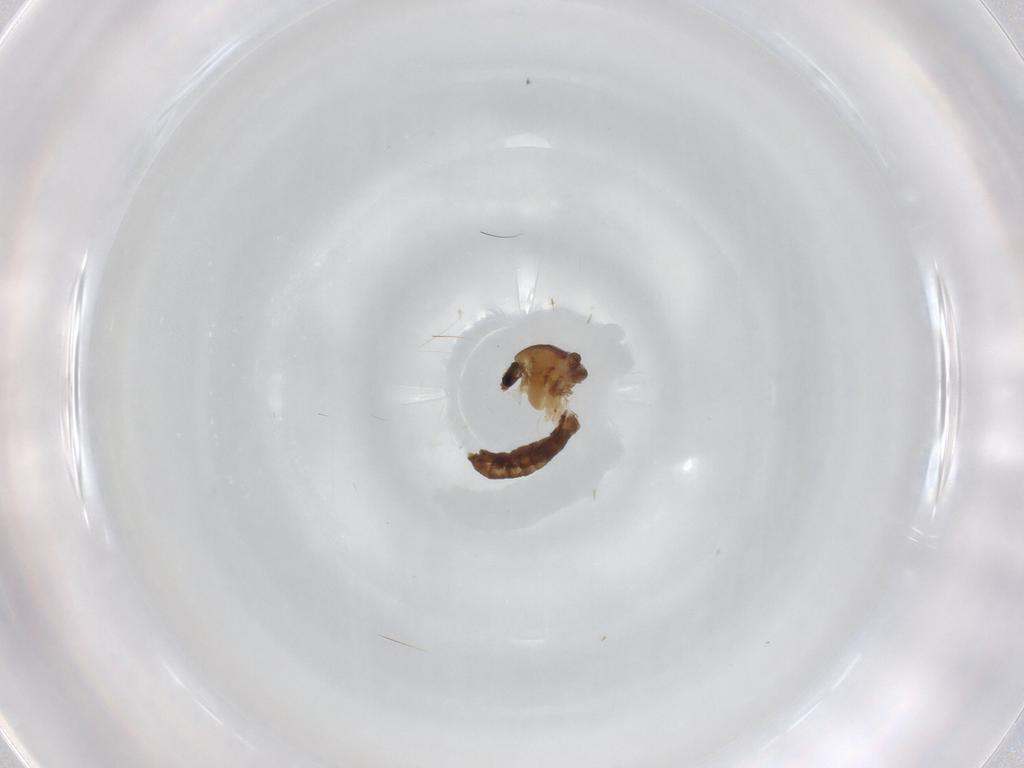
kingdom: Animalia
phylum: Arthropoda
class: Insecta
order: Diptera
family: Chironomidae
